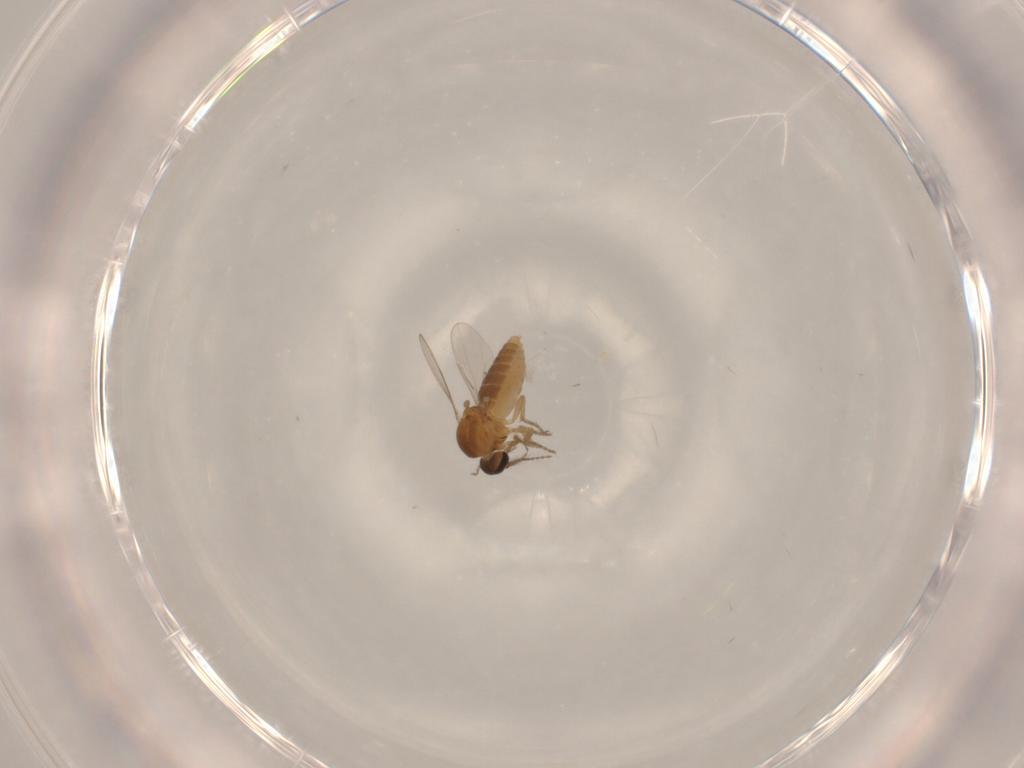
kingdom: Animalia
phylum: Arthropoda
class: Insecta
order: Diptera
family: Ceratopogonidae
